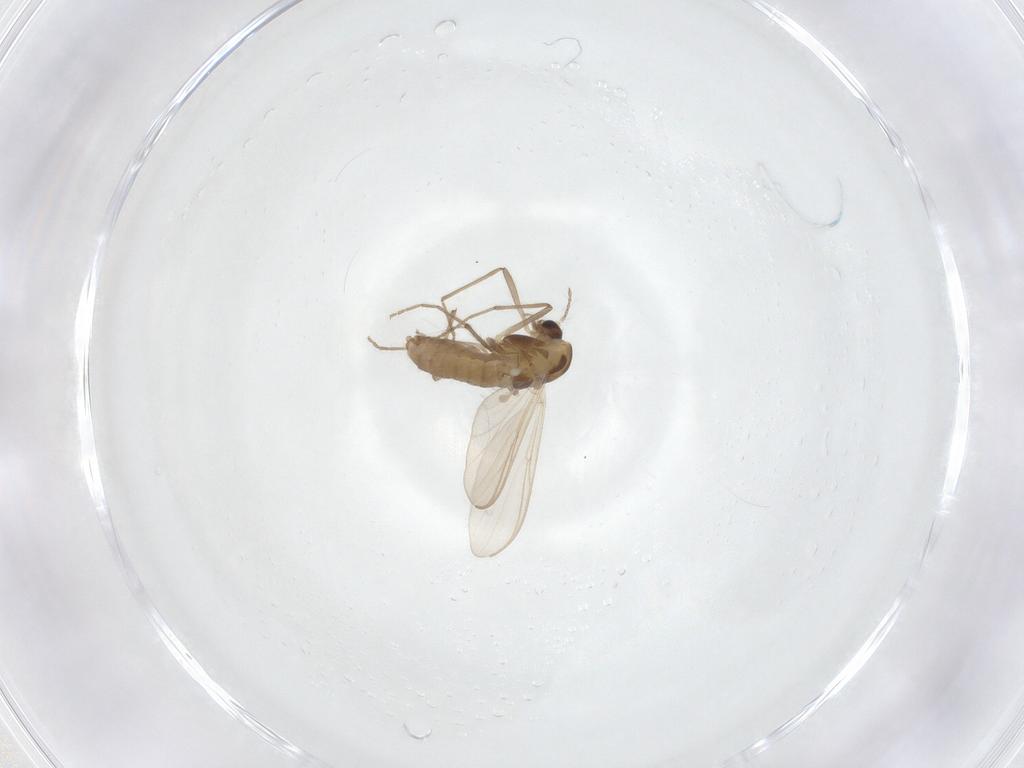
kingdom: Animalia
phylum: Arthropoda
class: Insecta
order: Diptera
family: Chironomidae
